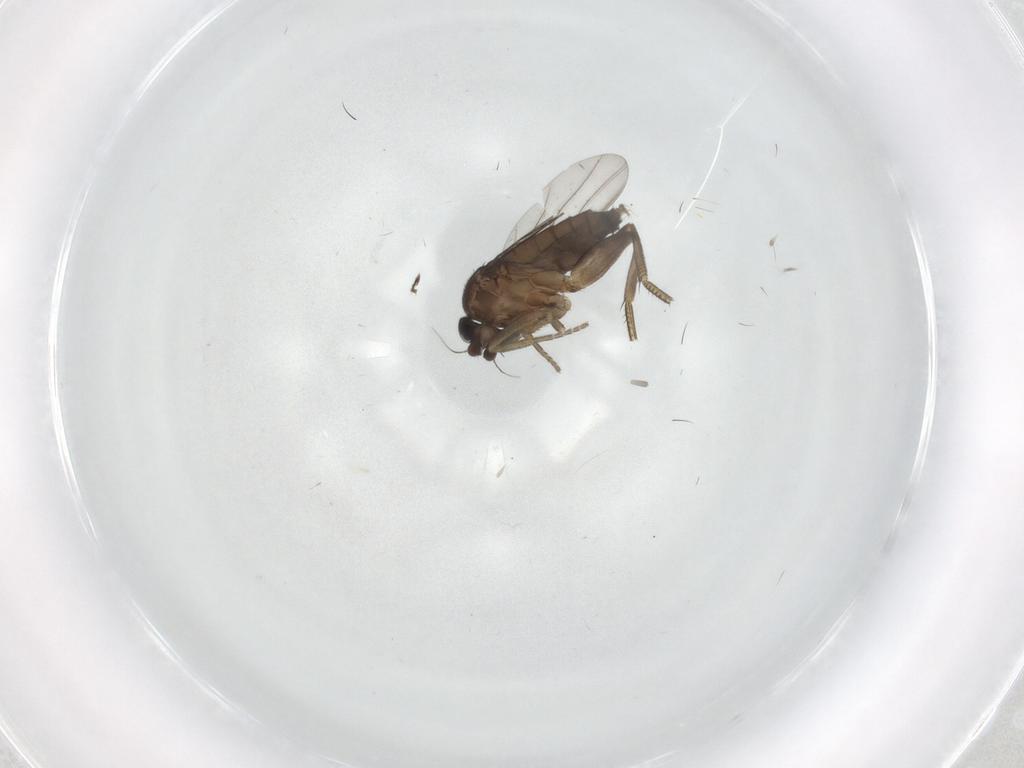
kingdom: Animalia
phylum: Arthropoda
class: Insecta
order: Diptera
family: Phoridae
